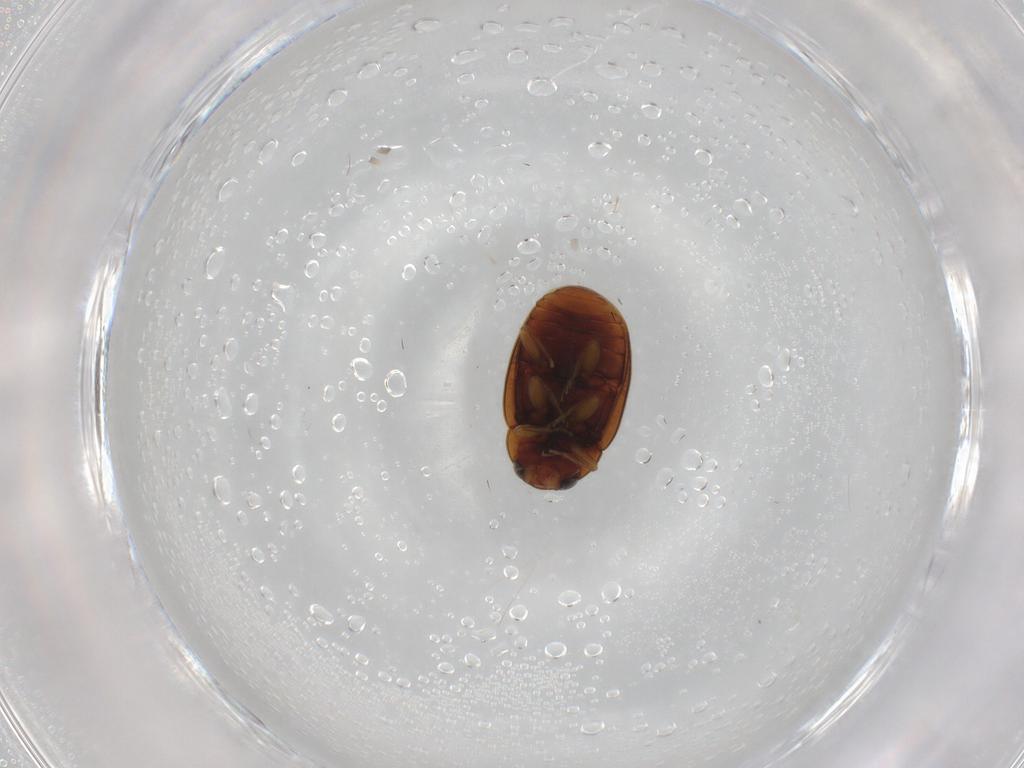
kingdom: Animalia
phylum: Arthropoda
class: Insecta
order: Coleoptera
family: Coccinellidae
